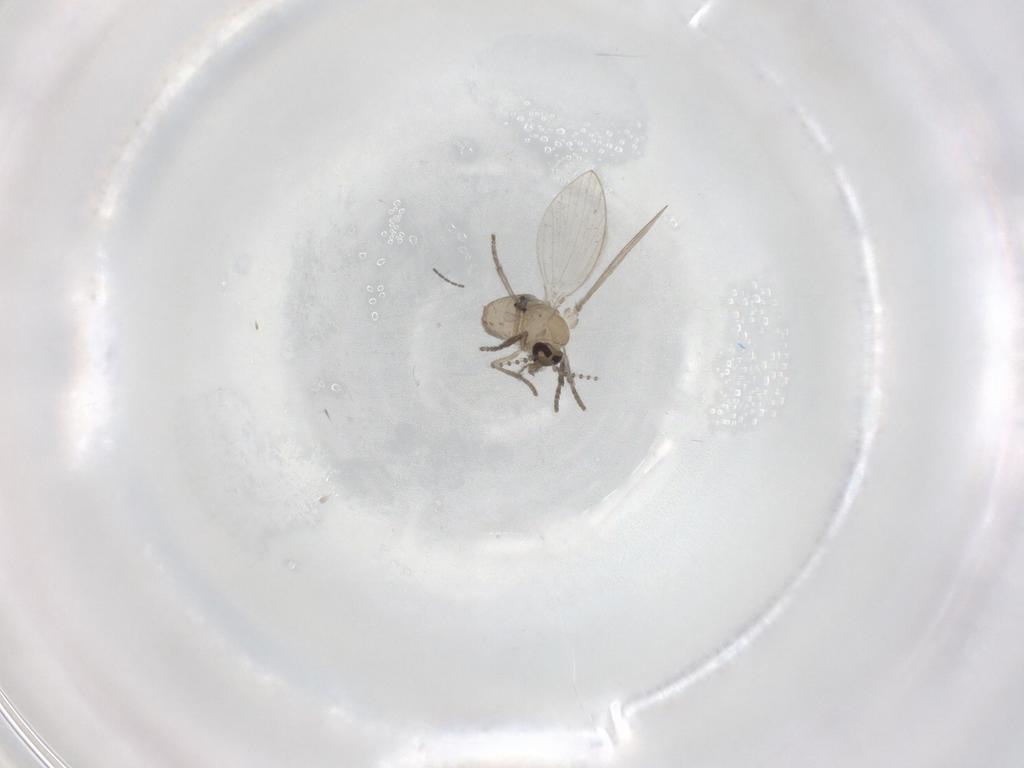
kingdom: Animalia
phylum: Arthropoda
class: Insecta
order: Diptera
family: Cecidomyiidae
